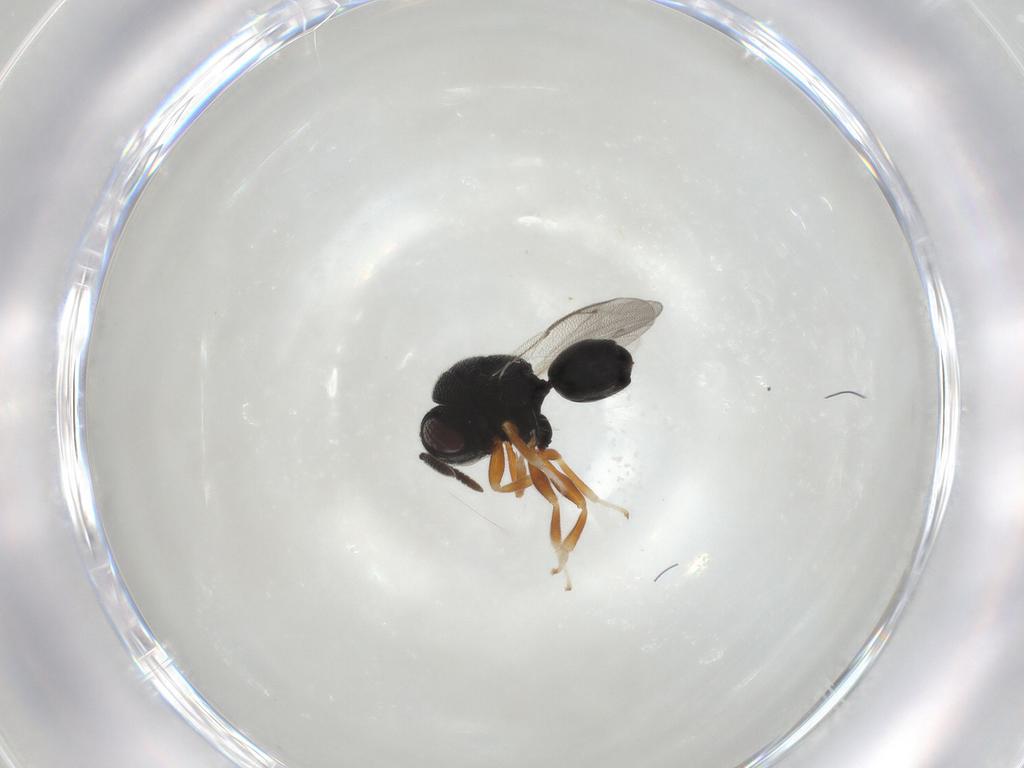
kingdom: Animalia
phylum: Arthropoda
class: Insecta
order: Hymenoptera
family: Eurytomidae
